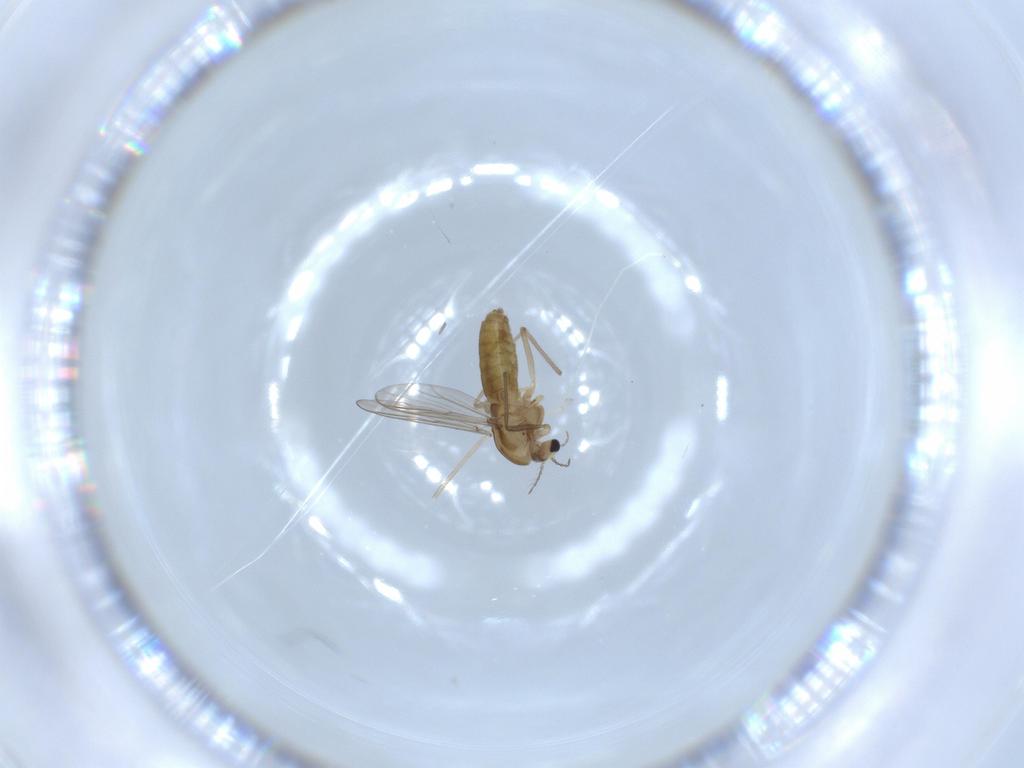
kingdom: Animalia
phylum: Arthropoda
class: Insecta
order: Diptera
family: Chironomidae
